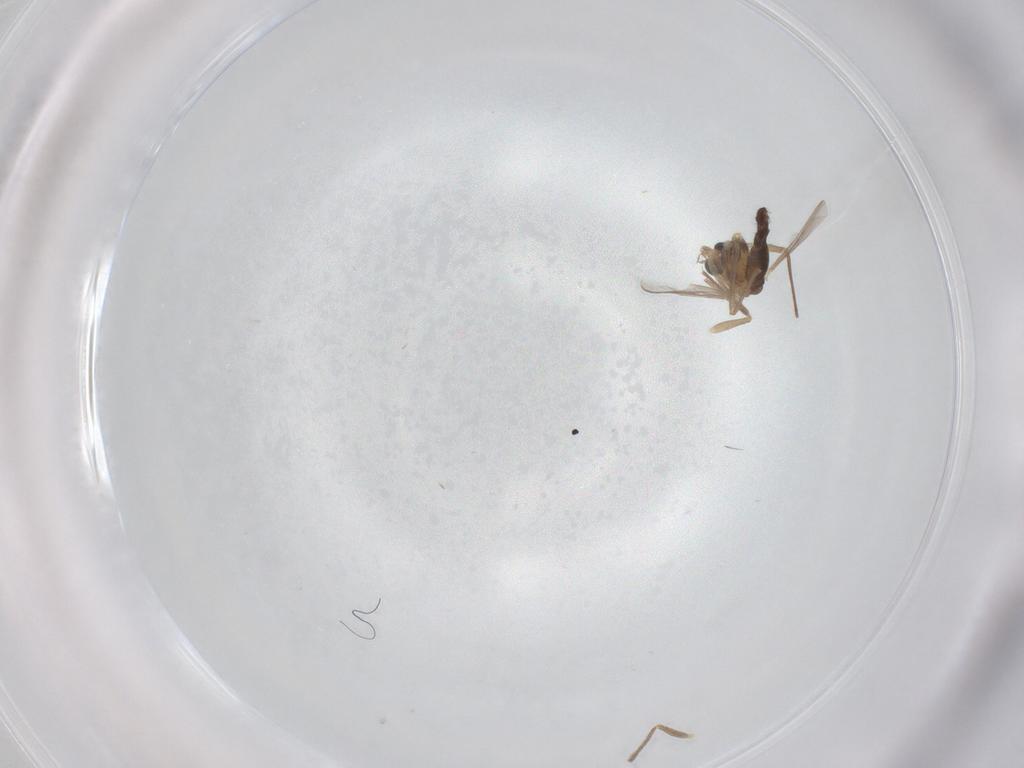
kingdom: Animalia
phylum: Arthropoda
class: Insecta
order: Diptera
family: Chironomidae
